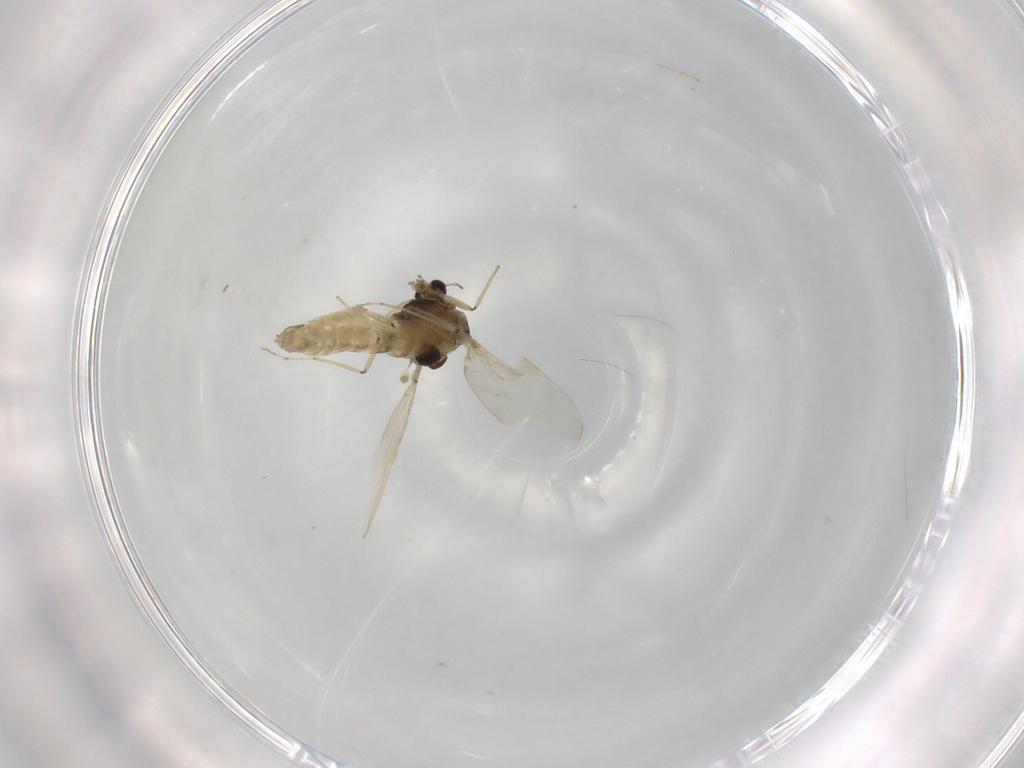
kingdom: Animalia
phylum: Arthropoda
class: Insecta
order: Diptera
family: Chironomidae
